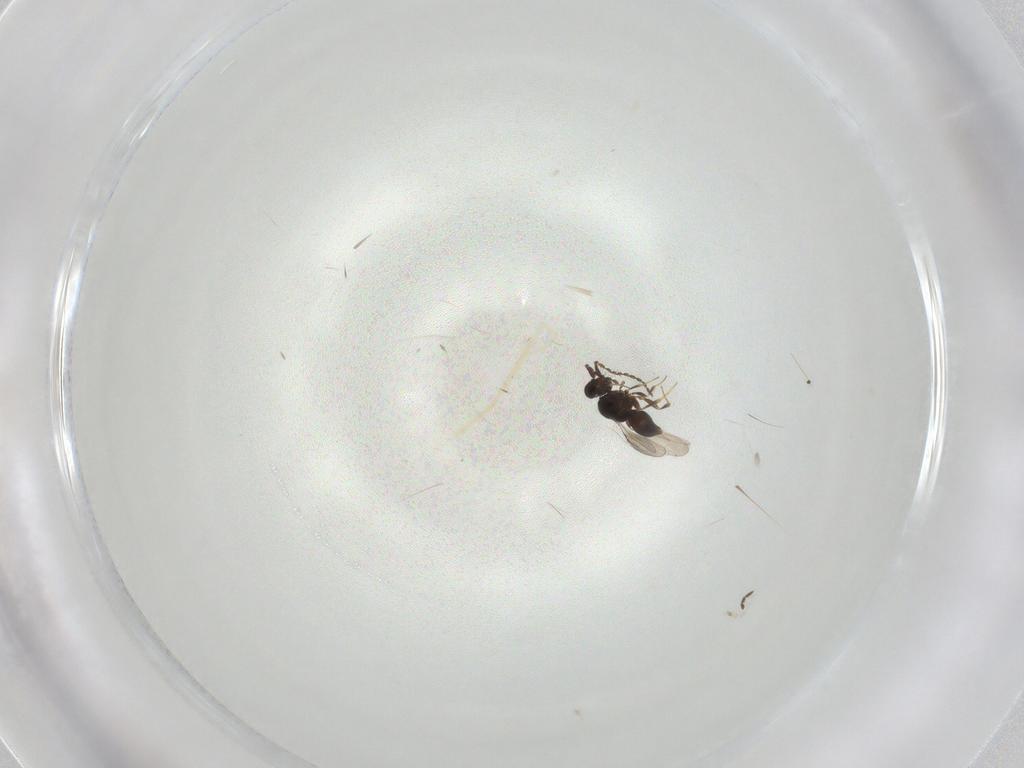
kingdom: Animalia
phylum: Arthropoda
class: Insecta
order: Hymenoptera
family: Ceraphronidae
